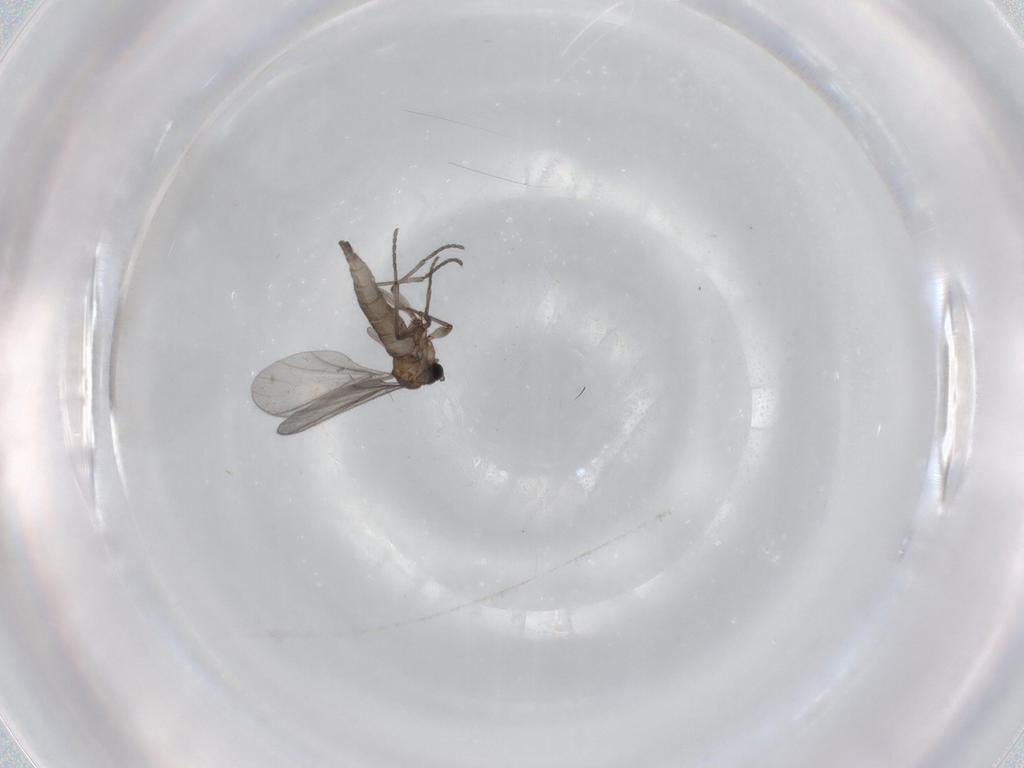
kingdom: Animalia
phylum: Arthropoda
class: Insecta
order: Diptera
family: Sciaridae
